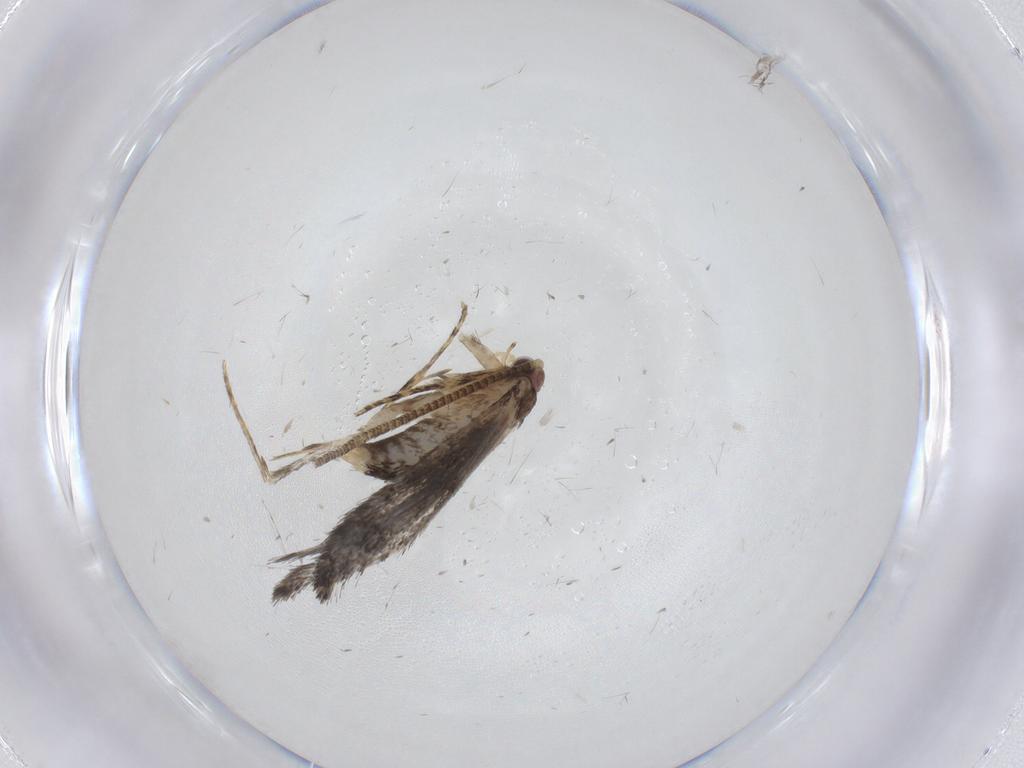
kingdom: Animalia
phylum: Arthropoda
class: Insecta
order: Lepidoptera
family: Tineidae
